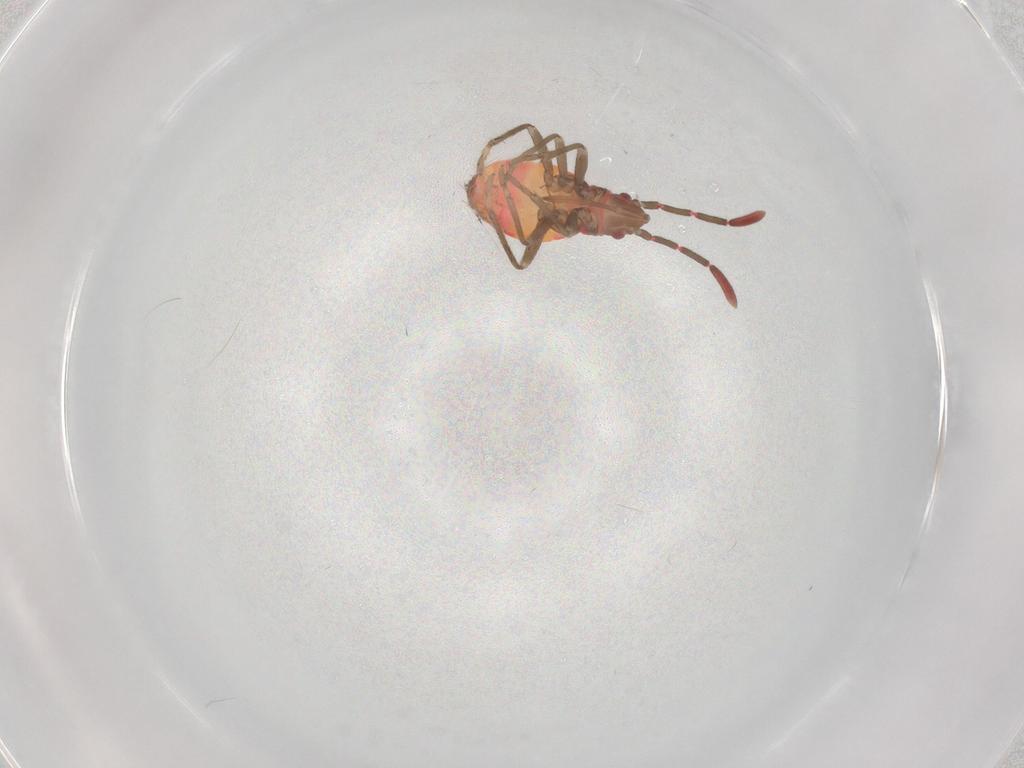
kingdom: Animalia
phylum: Arthropoda
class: Insecta
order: Hemiptera
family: Rhyparochromidae
